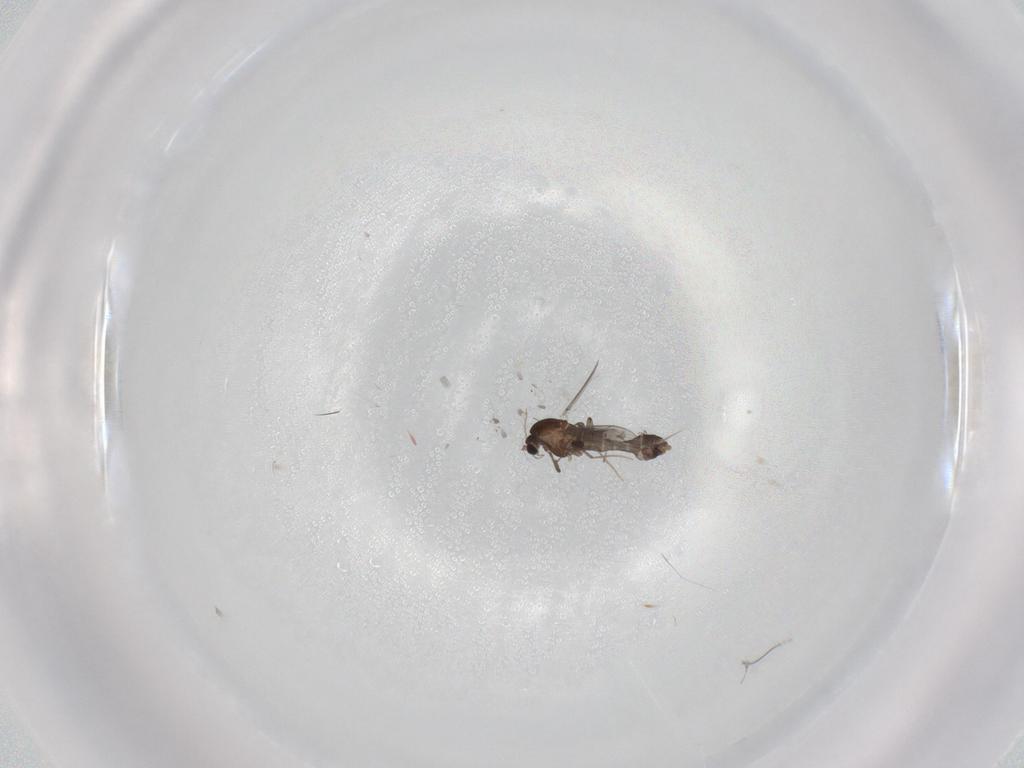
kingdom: Animalia
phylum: Arthropoda
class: Insecta
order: Diptera
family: Chironomidae
